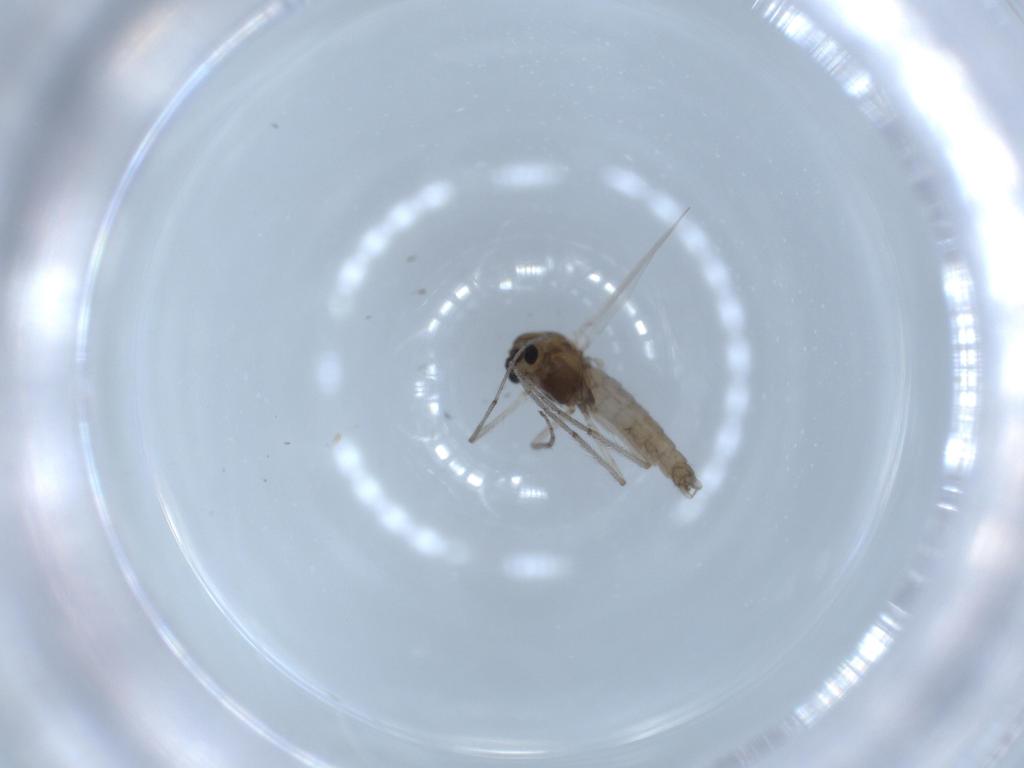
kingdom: Animalia
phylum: Arthropoda
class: Insecta
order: Diptera
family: Chironomidae
